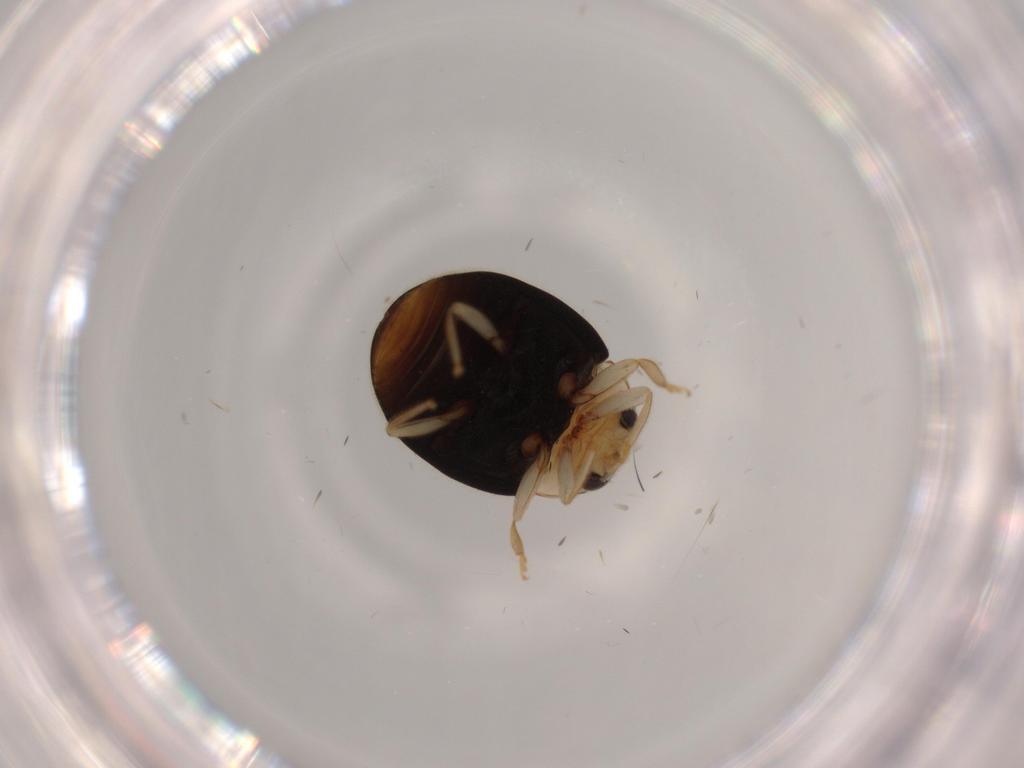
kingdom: Animalia
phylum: Arthropoda
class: Insecta
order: Coleoptera
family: Coccinellidae
